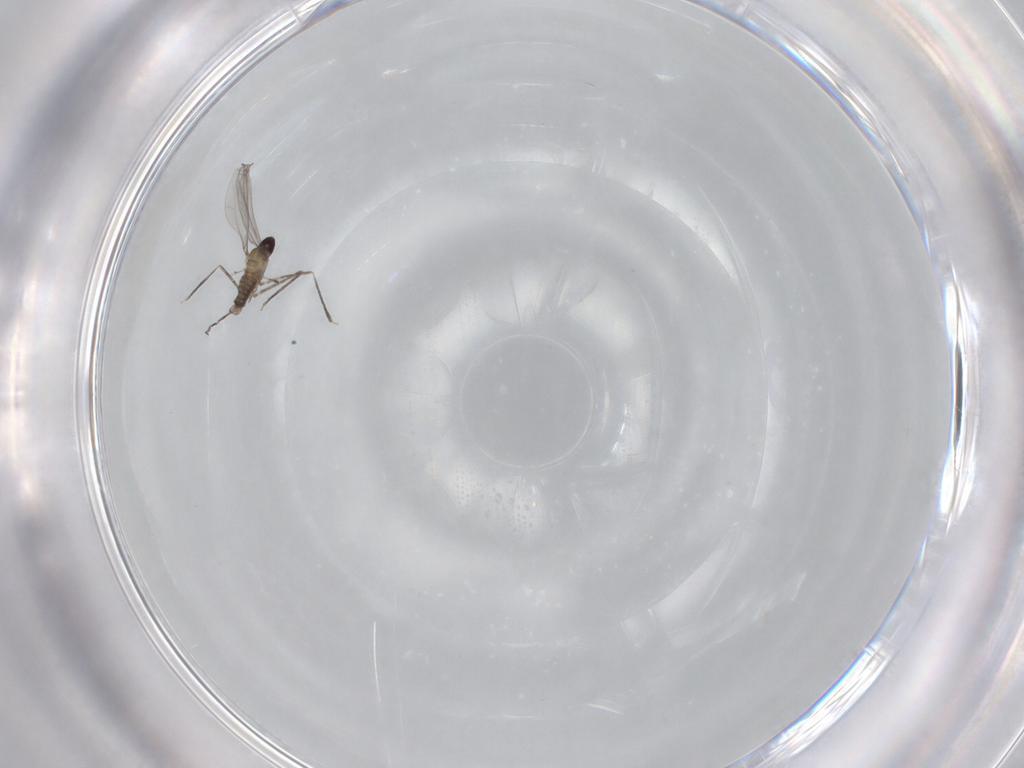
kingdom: Animalia
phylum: Arthropoda
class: Insecta
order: Diptera
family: Cecidomyiidae
